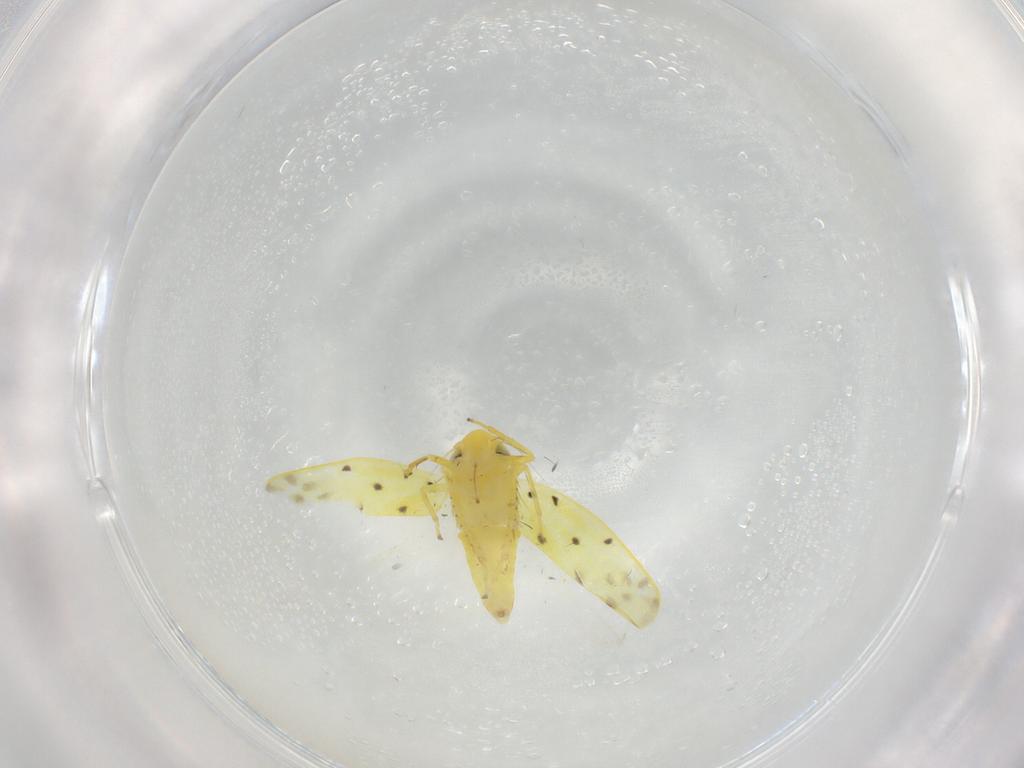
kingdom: Animalia
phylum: Arthropoda
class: Insecta
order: Hemiptera
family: Cicadellidae
